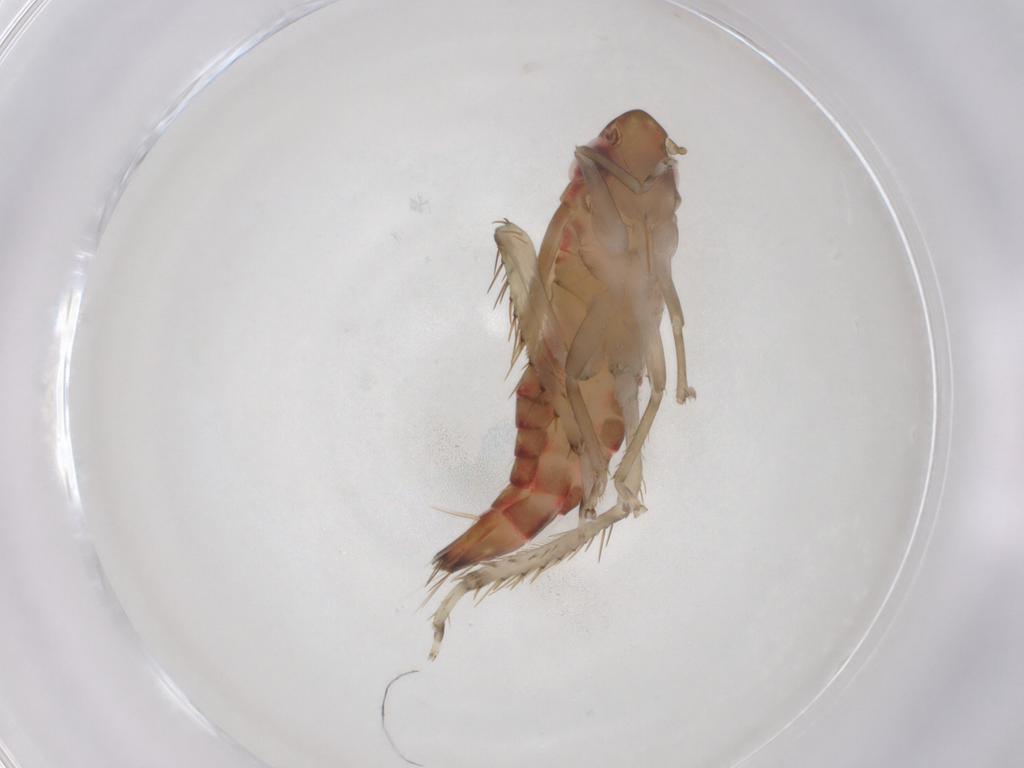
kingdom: Animalia
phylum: Arthropoda
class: Insecta
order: Hemiptera
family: Cicadellidae
